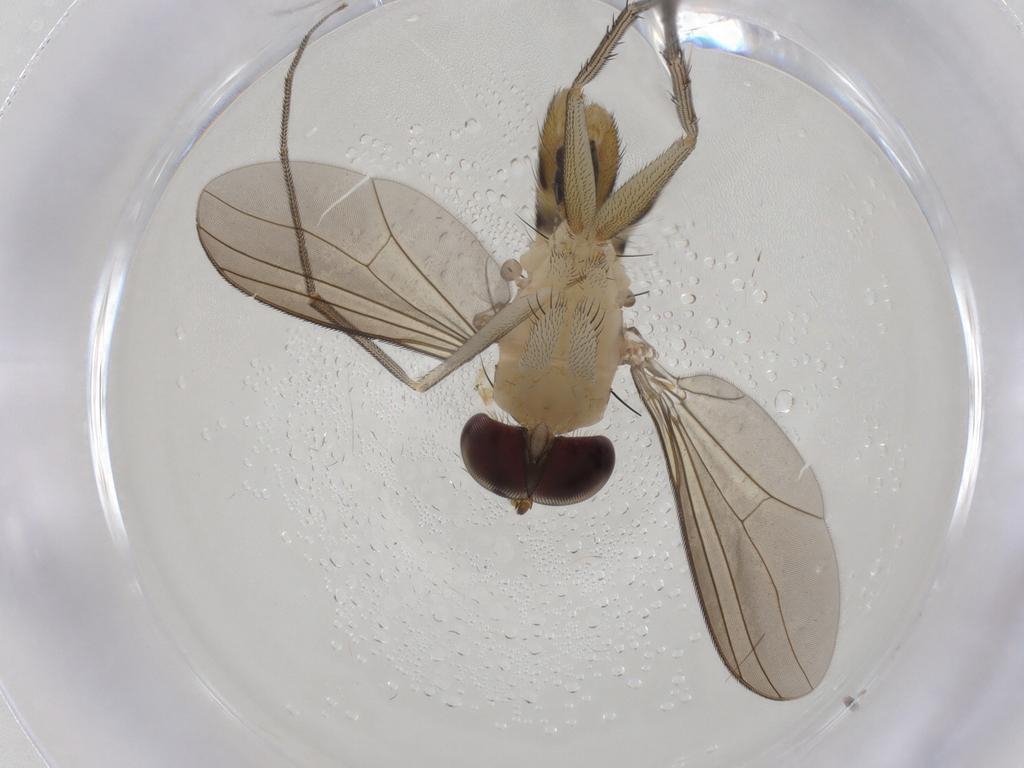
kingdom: Animalia
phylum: Arthropoda
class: Insecta
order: Diptera
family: Dolichopodidae
